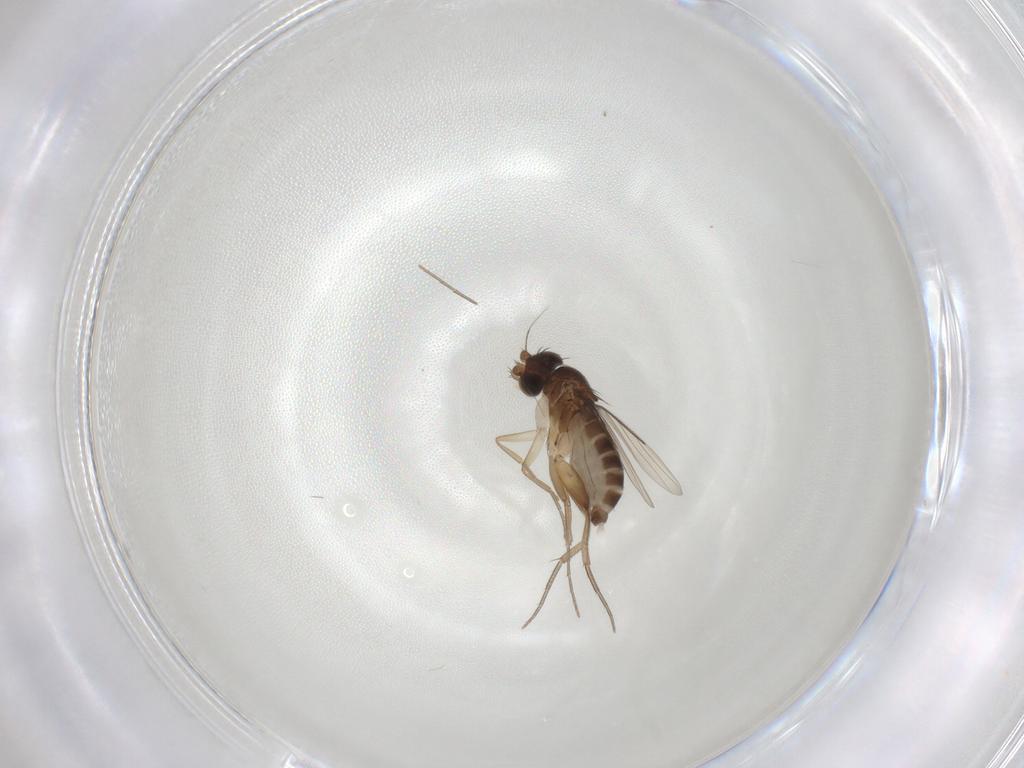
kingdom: Animalia
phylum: Arthropoda
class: Insecta
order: Diptera
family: Phoridae
